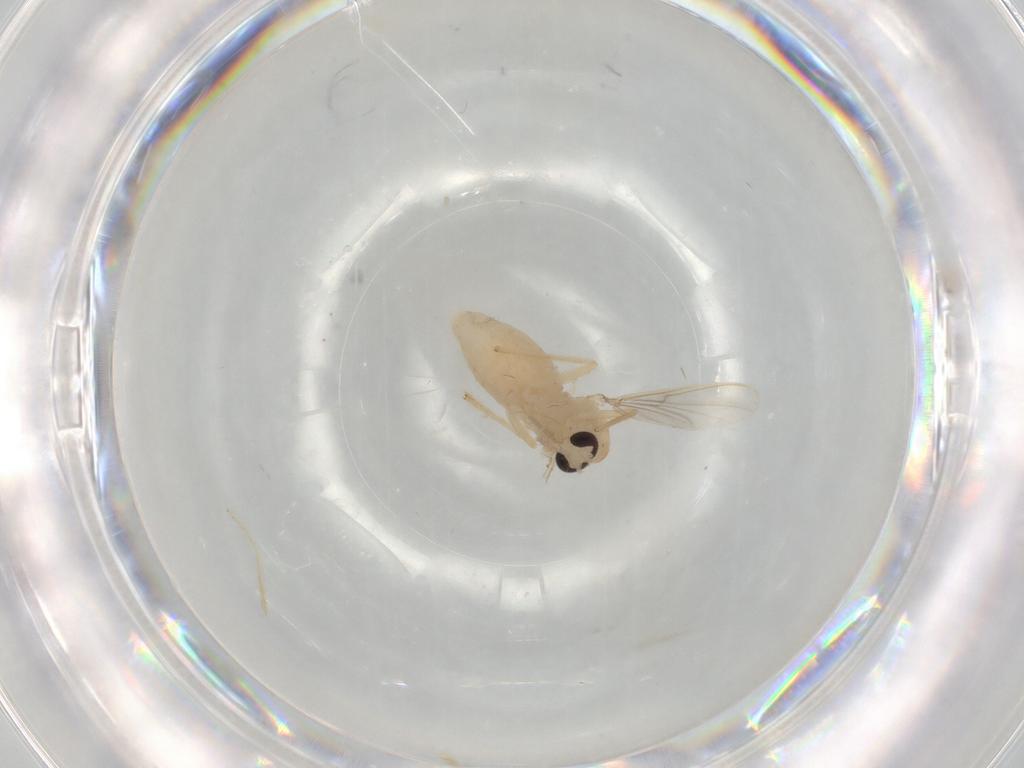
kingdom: Animalia
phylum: Arthropoda
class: Insecta
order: Diptera
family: Chironomidae
